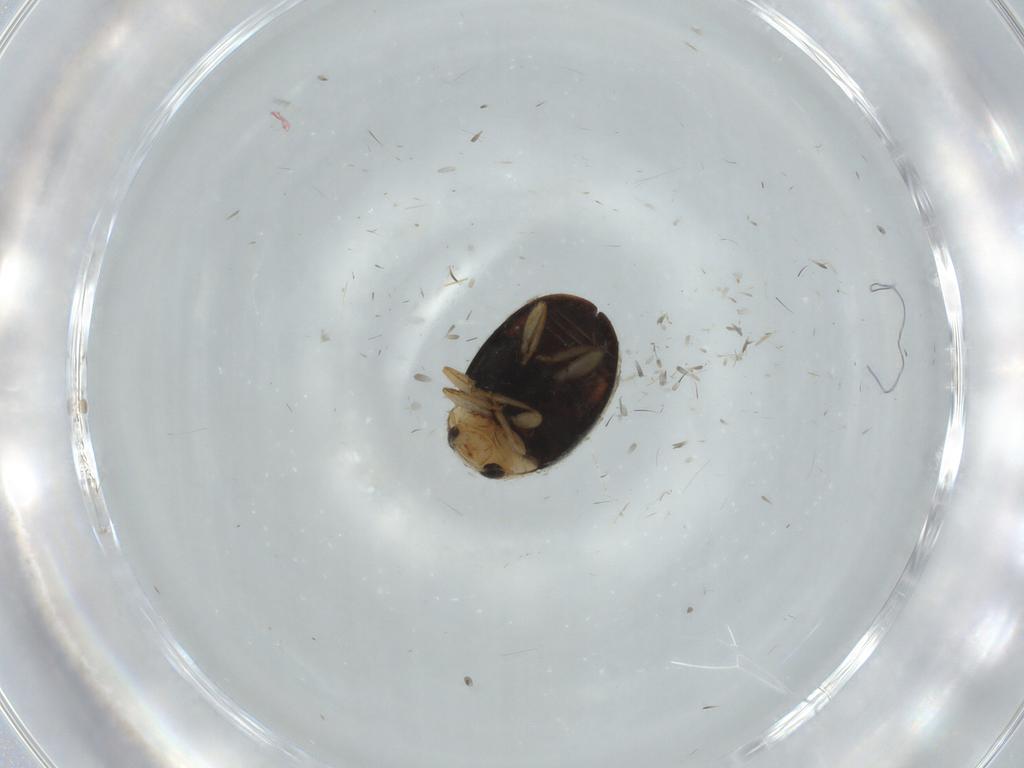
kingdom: Animalia
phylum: Arthropoda
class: Insecta
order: Coleoptera
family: Coccinellidae
